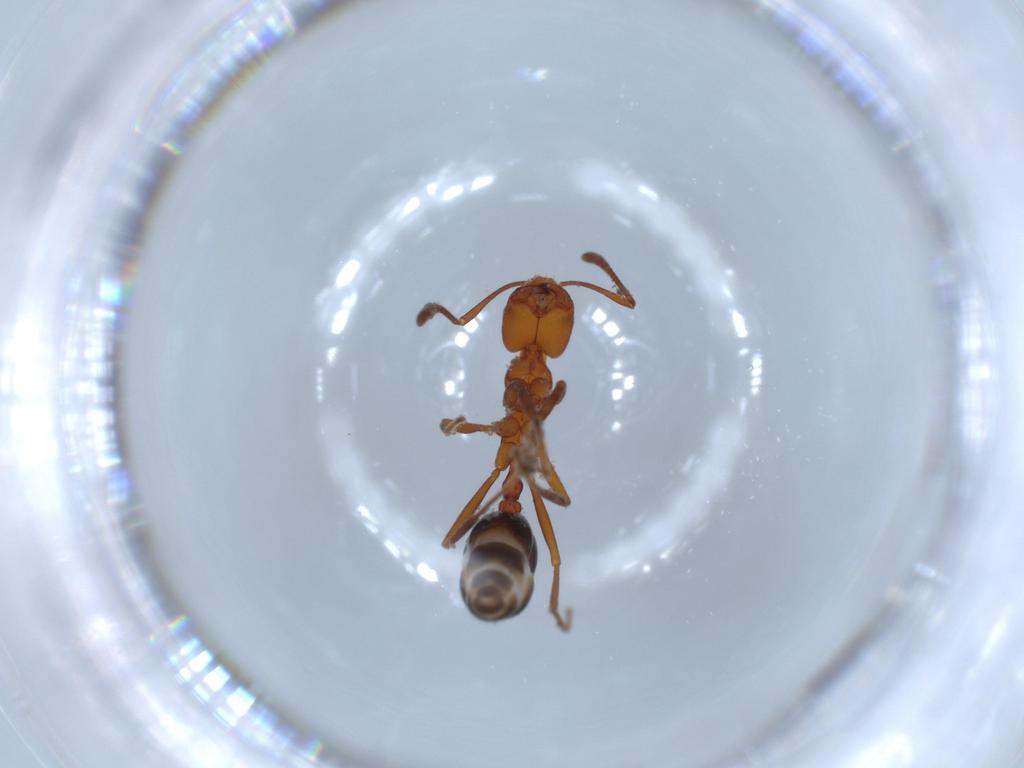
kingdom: Animalia
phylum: Arthropoda
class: Insecta
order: Hymenoptera
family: Formicidae
